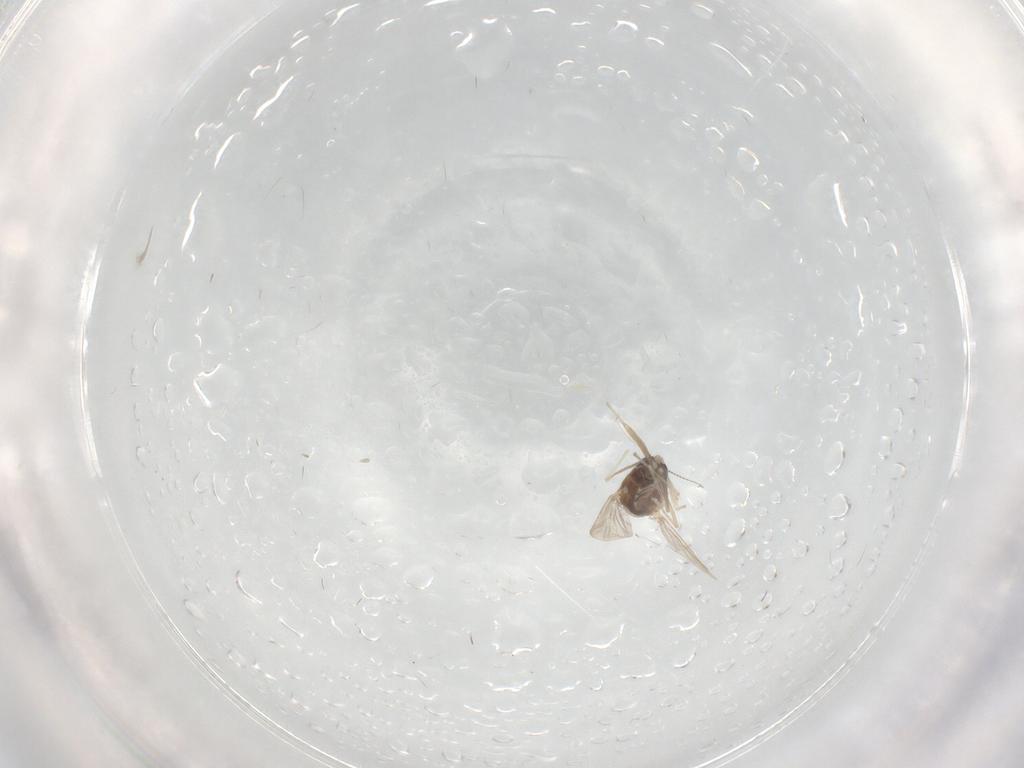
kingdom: Animalia
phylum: Arthropoda
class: Insecta
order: Diptera
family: Chironomidae
